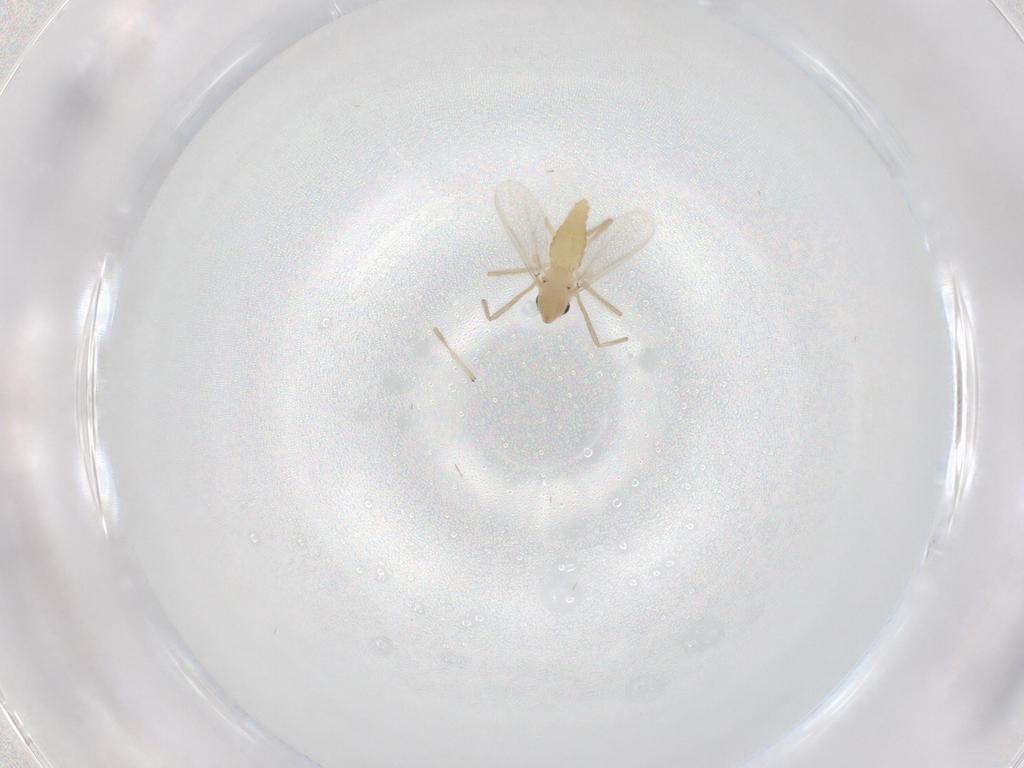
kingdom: Animalia
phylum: Arthropoda
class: Insecta
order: Diptera
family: Chironomidae
